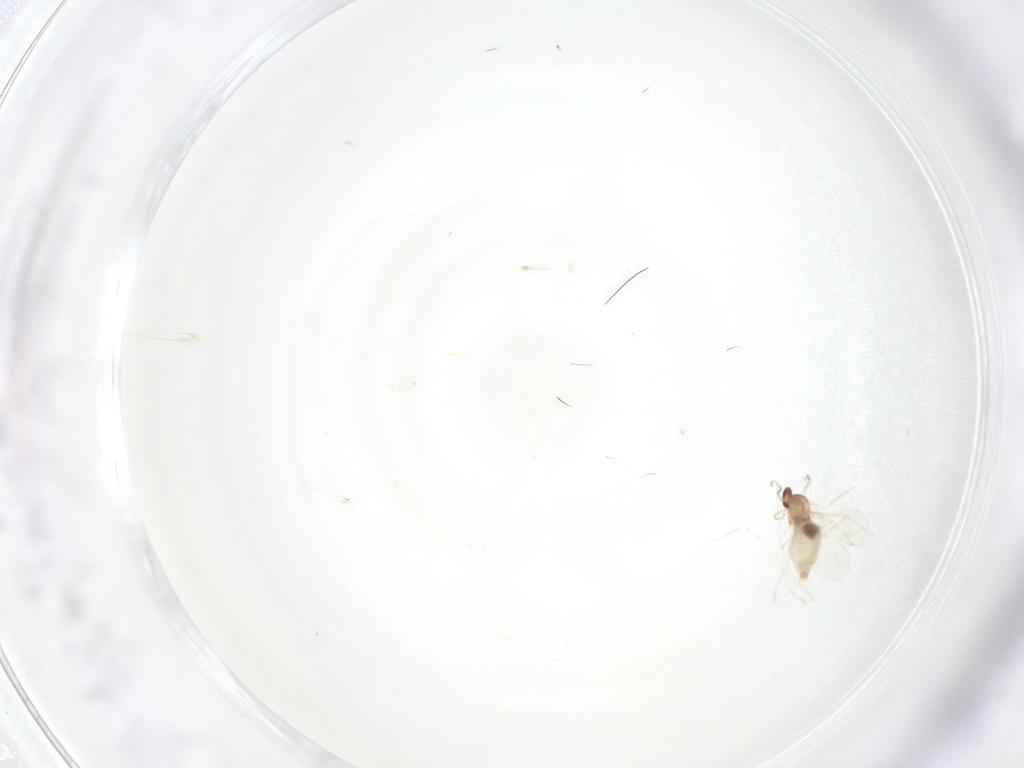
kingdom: Animalia
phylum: Arthropoda
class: Insecta
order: Diptera
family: Cecidomyiidae
